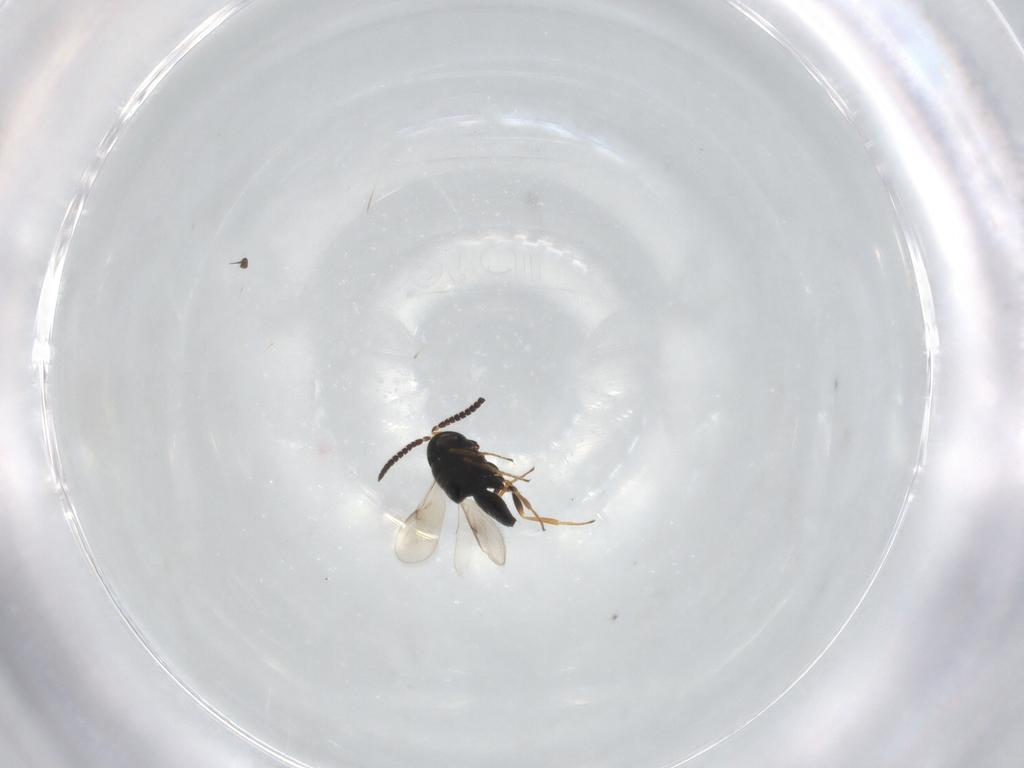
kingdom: Animalia
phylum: Arthropoda
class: Insecta
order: Hymenoptera
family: Scelionidae
